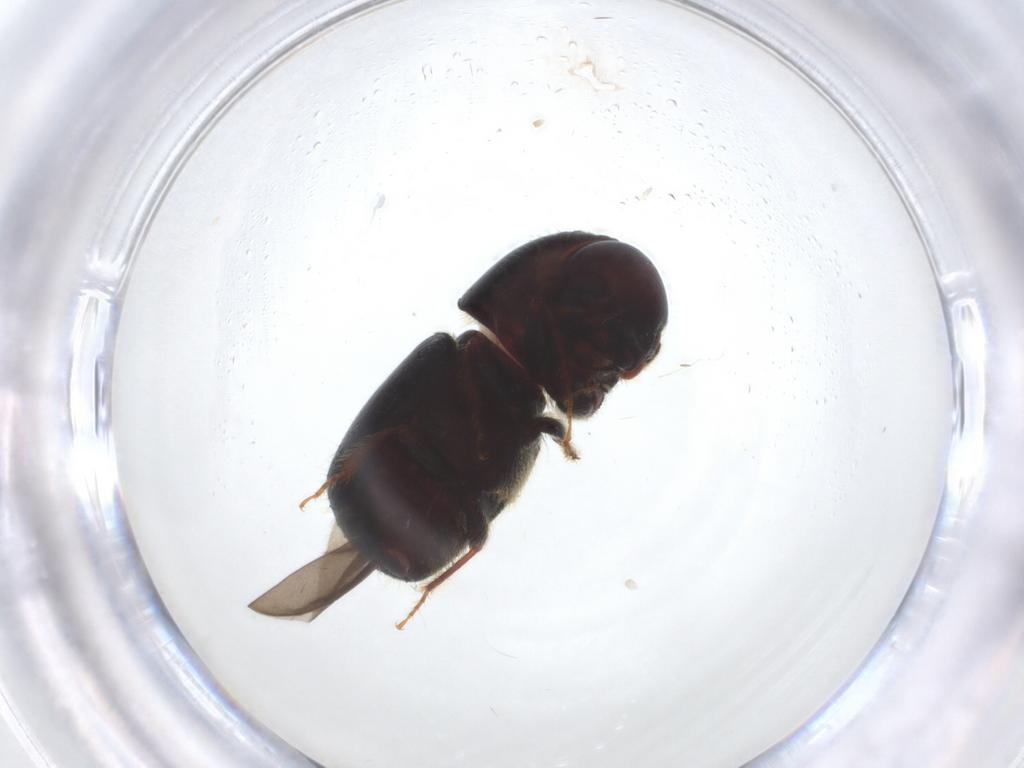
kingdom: Animalia
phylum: Arthropoda
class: Insecta
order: Coleoptera
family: Curculionidae
